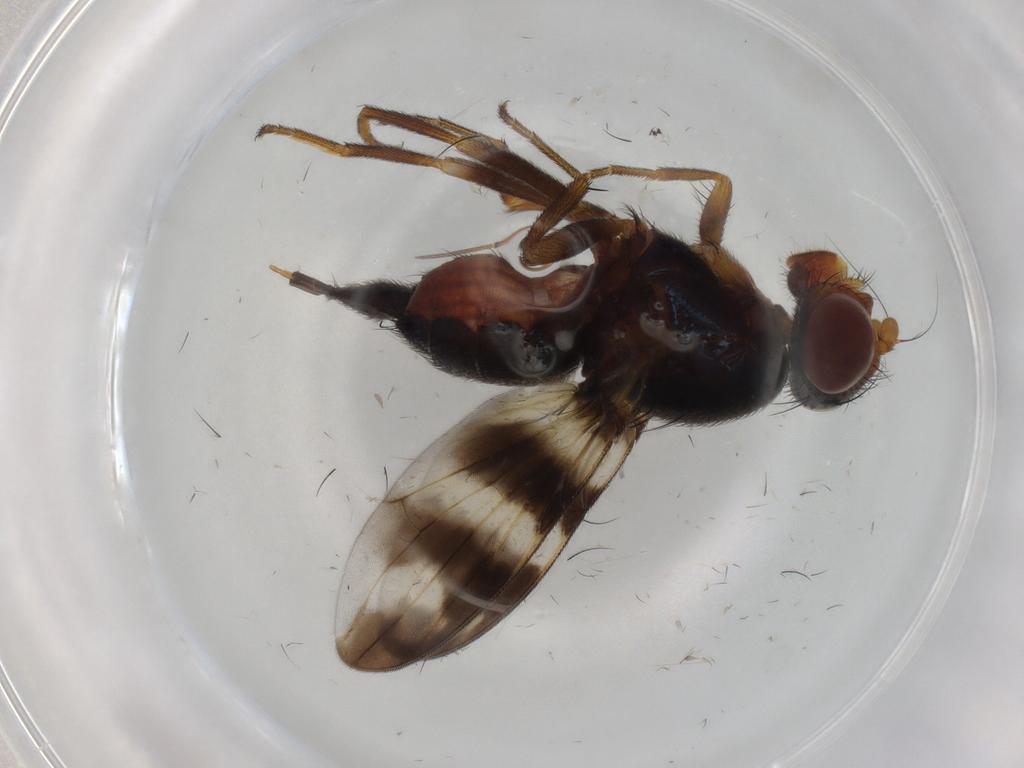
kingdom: Animalia
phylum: Arthropoda
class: Insecta
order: Diptera
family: Ulidiidae
